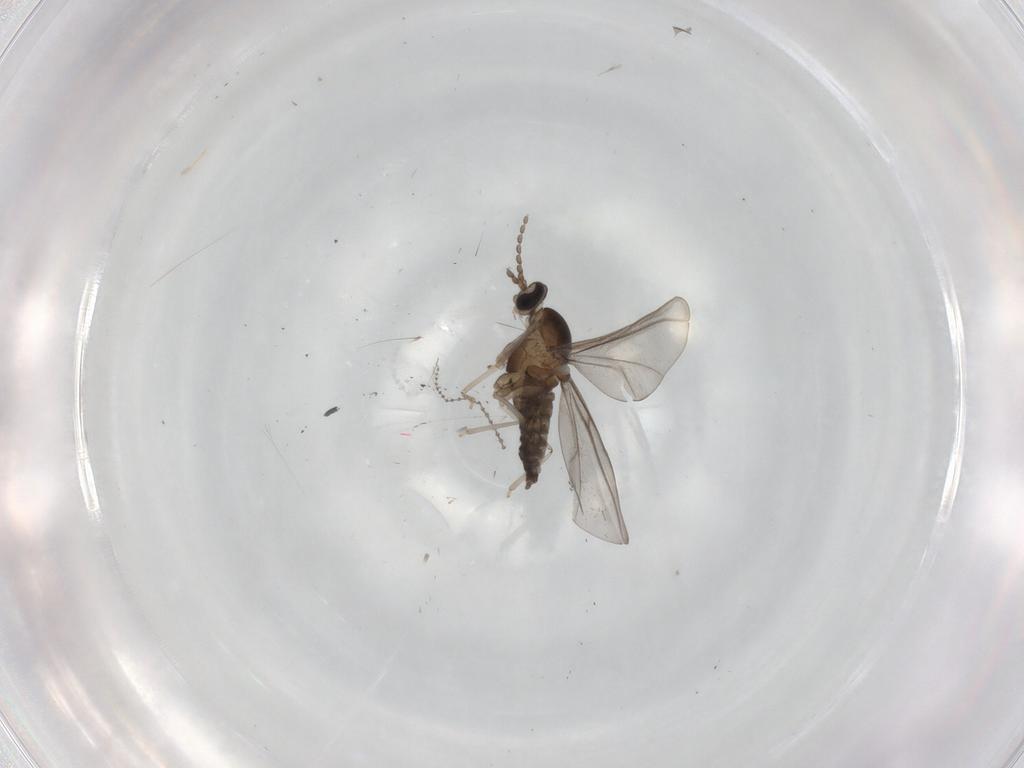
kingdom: Animalia
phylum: Arthropoda
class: Insecta
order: Diptera
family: Cecidomyiidae
